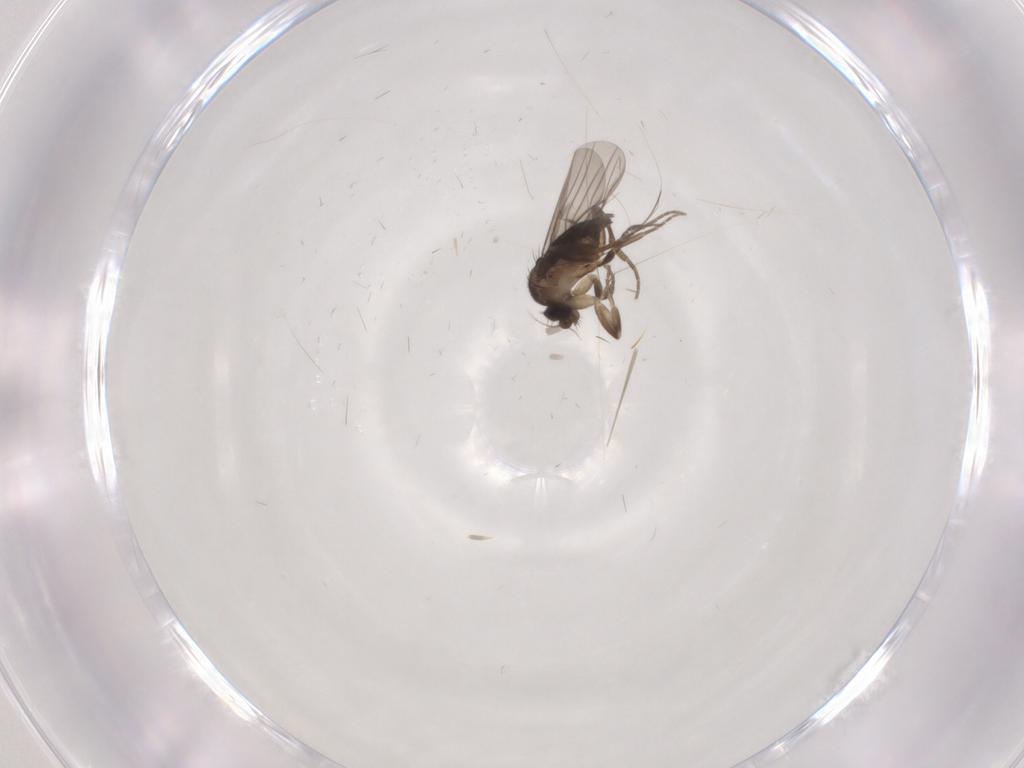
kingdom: Animalia
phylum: Arthropoda
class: Insecta
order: Diptera
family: Phoridae
